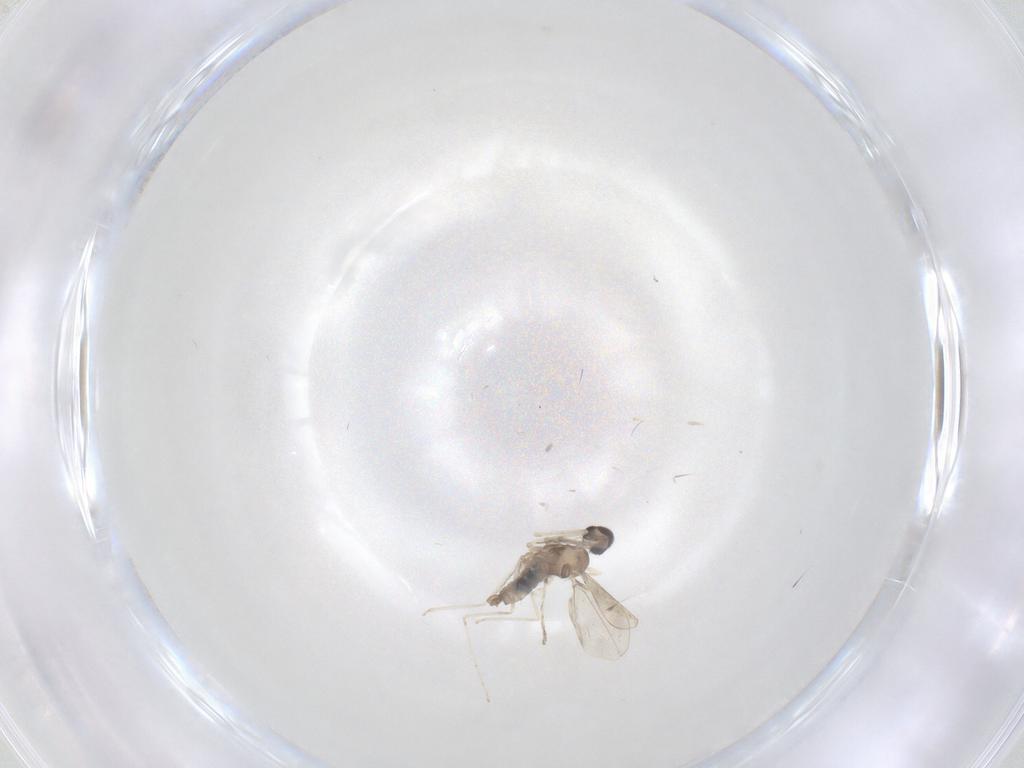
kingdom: Animalia
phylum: Arthropoda
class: Insecta
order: Diptera
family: Cecidomyiidae
